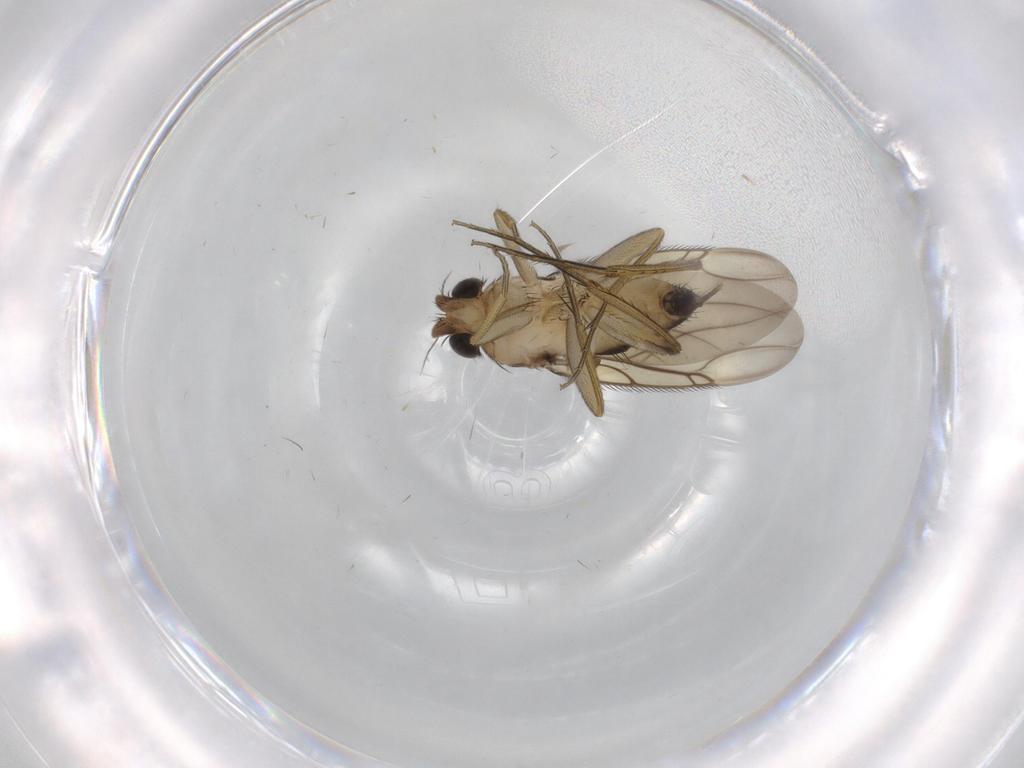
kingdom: Animalia
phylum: Arthropoda
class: Insecta
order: Diptera
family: Phoridae
